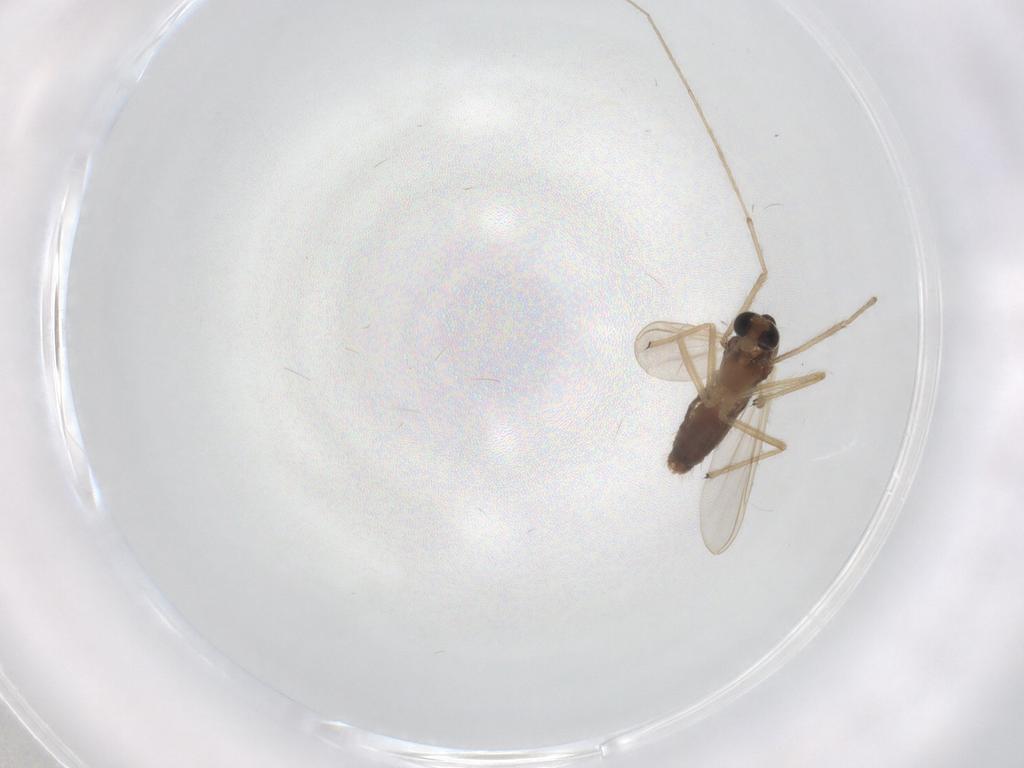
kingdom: Animalia
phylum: Arthropoda
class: Insecta
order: Diptera
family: Chironomidae
